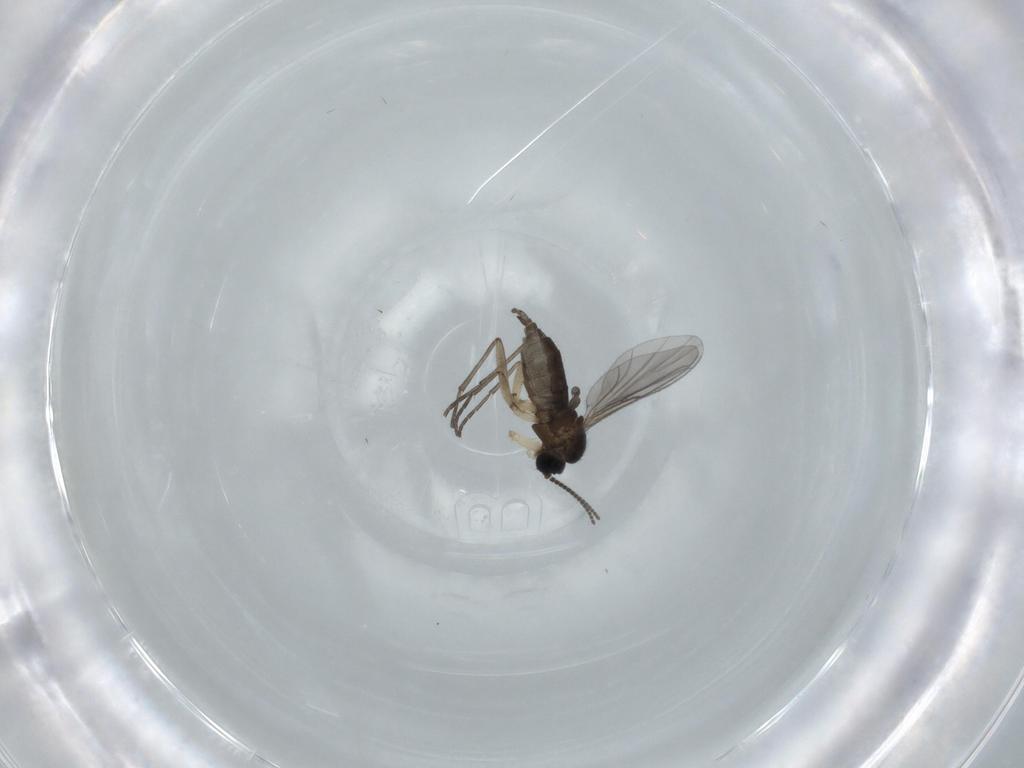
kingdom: Animalia
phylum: Arthropoda
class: Insecta
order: Diptera
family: Sciaridae
